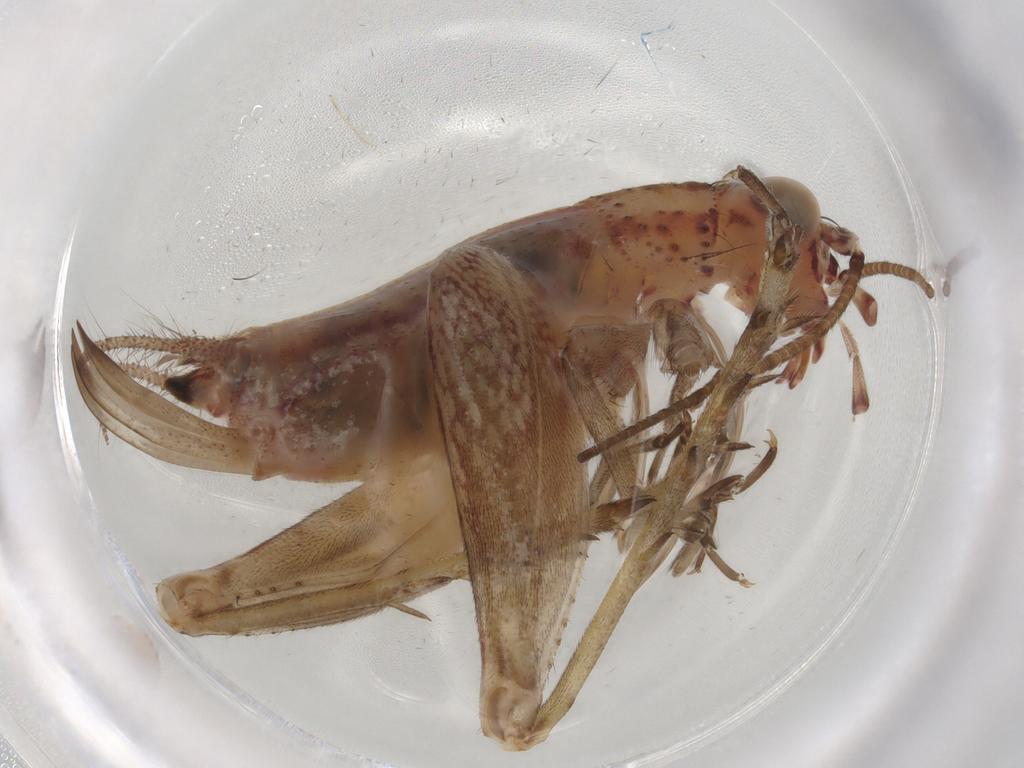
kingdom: Animalia
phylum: Arthropoda
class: Insecta
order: Orthoptera
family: Trigonidiidae
